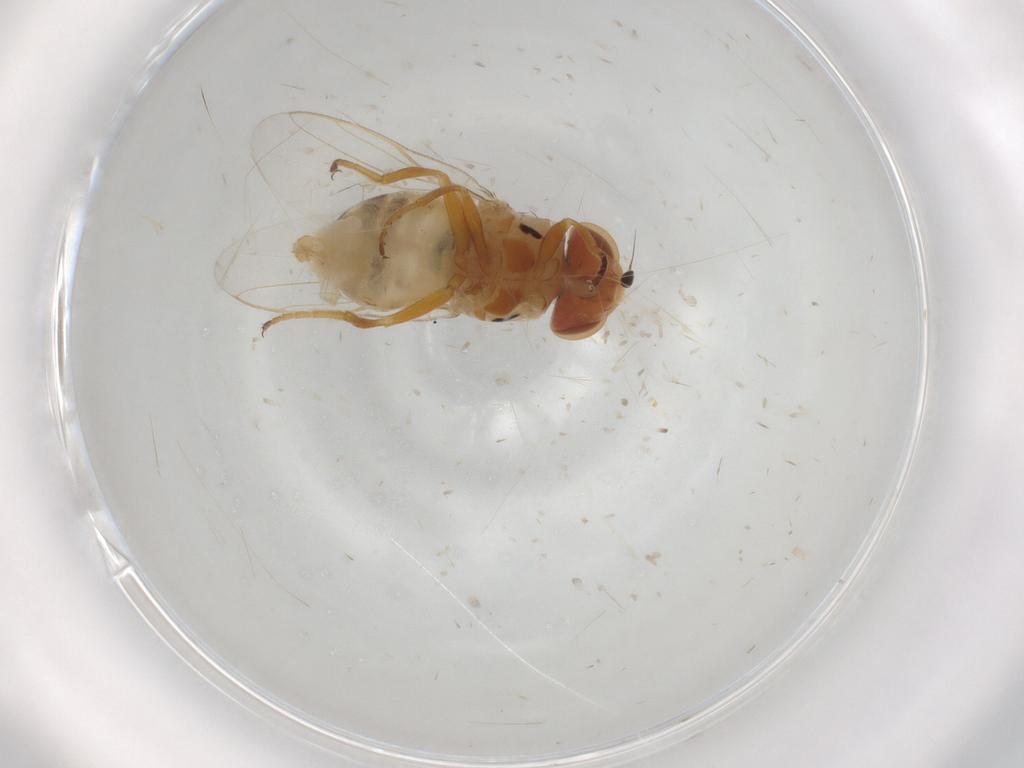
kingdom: Animalia
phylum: Arthropoda
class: Insecta
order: Diptera
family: Chloropidae
